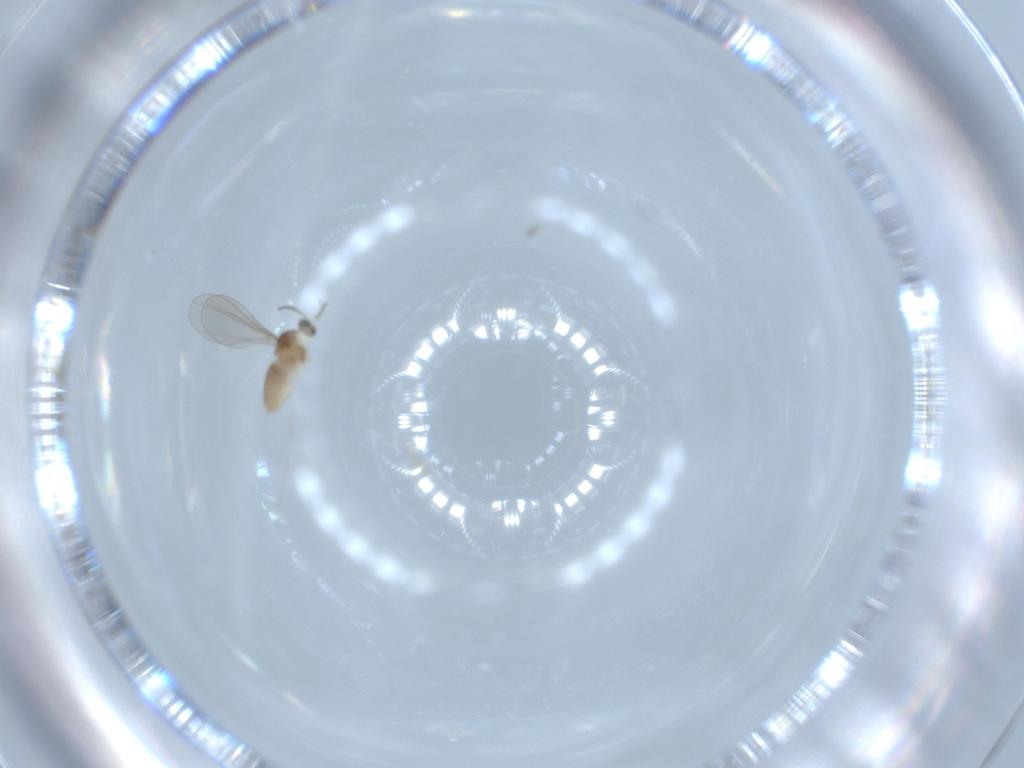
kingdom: Animalia
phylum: Arthropoda
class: Insecta
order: Diptera
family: Cecidomyiidae
